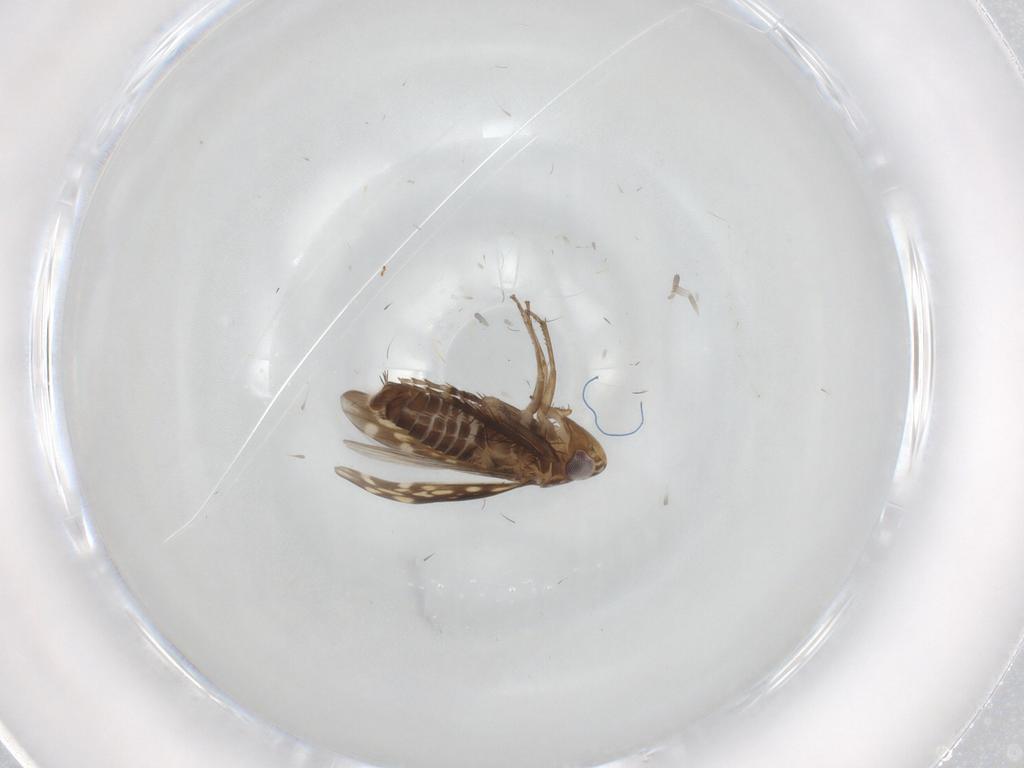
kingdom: Animalia
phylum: Arthropoda
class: Insecta
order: Hemiptera
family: Cicadellidae
